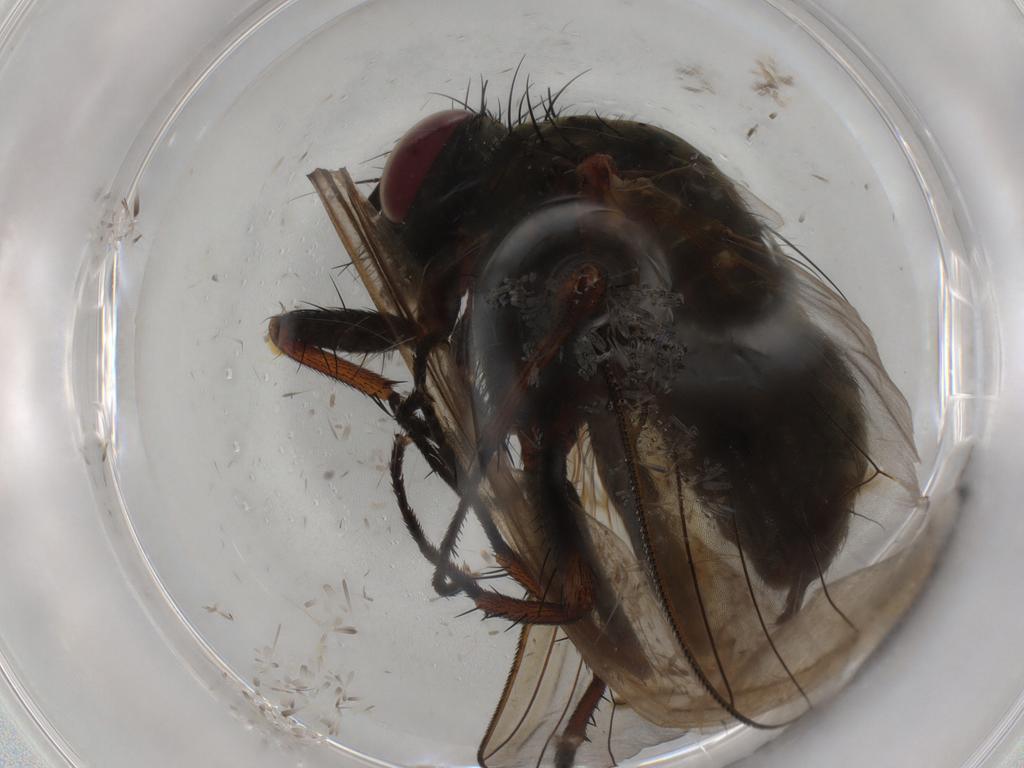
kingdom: Animalia
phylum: Arthropoda
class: Insecta
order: Diptera
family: Muscidae
